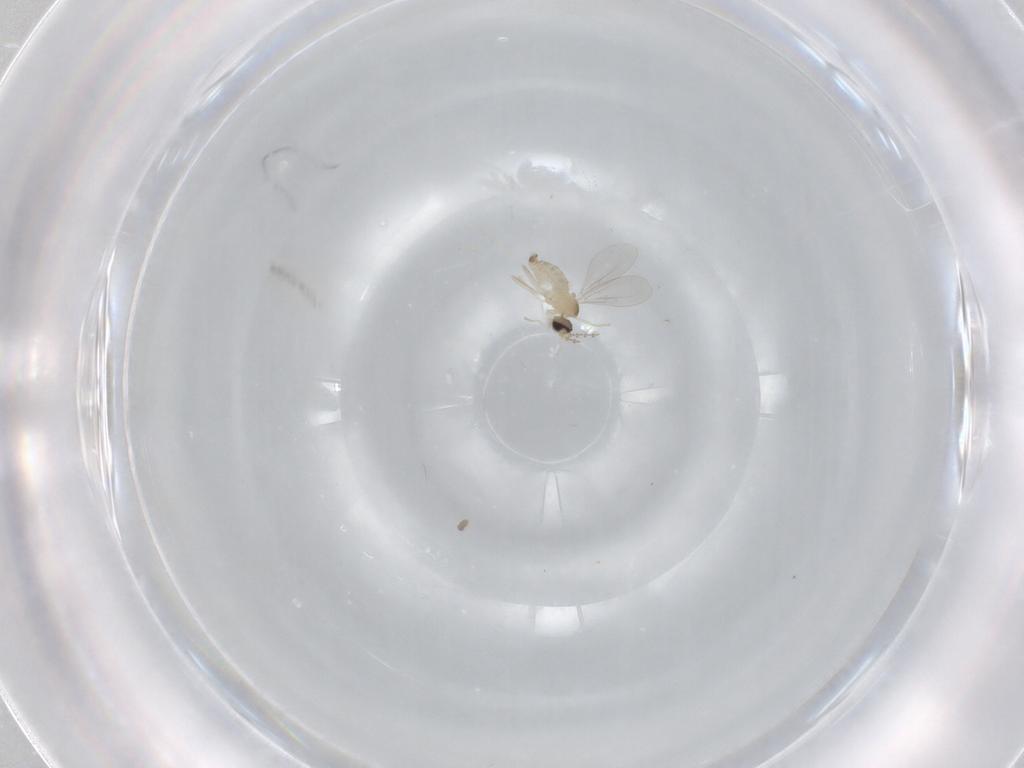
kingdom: Animalia
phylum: Arthropoda
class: Insecta
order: Diptera
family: Cecidomyiidae
